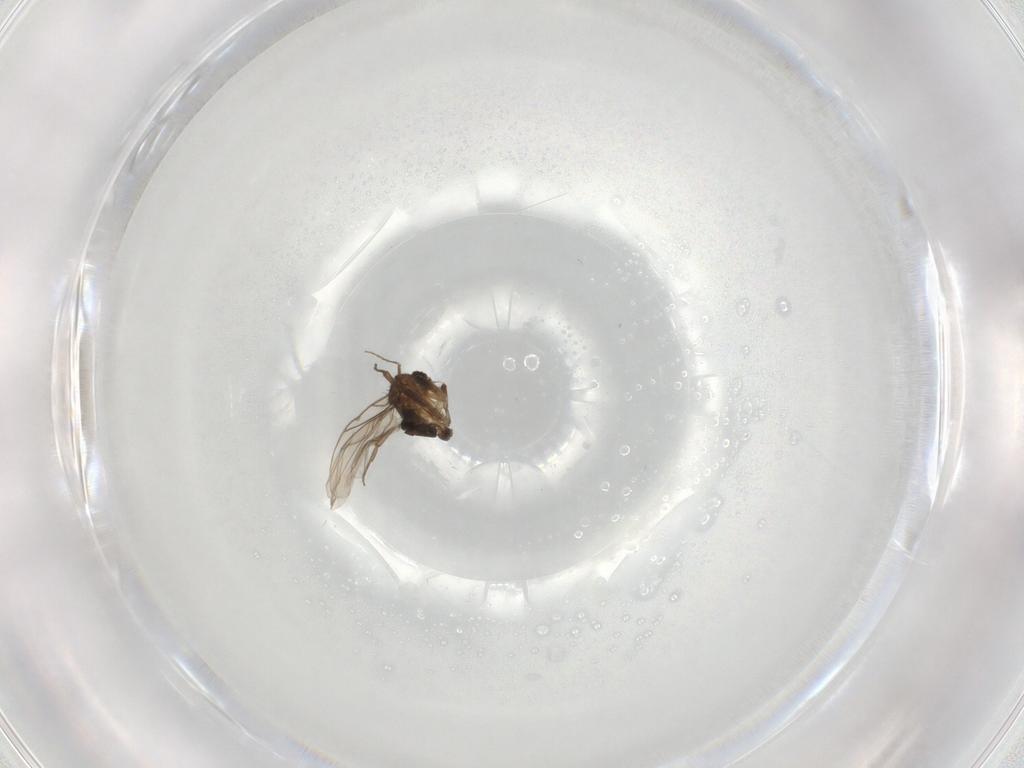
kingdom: Animalia
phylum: Arthropoda
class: Insecta
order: Diptera
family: Phoridae
